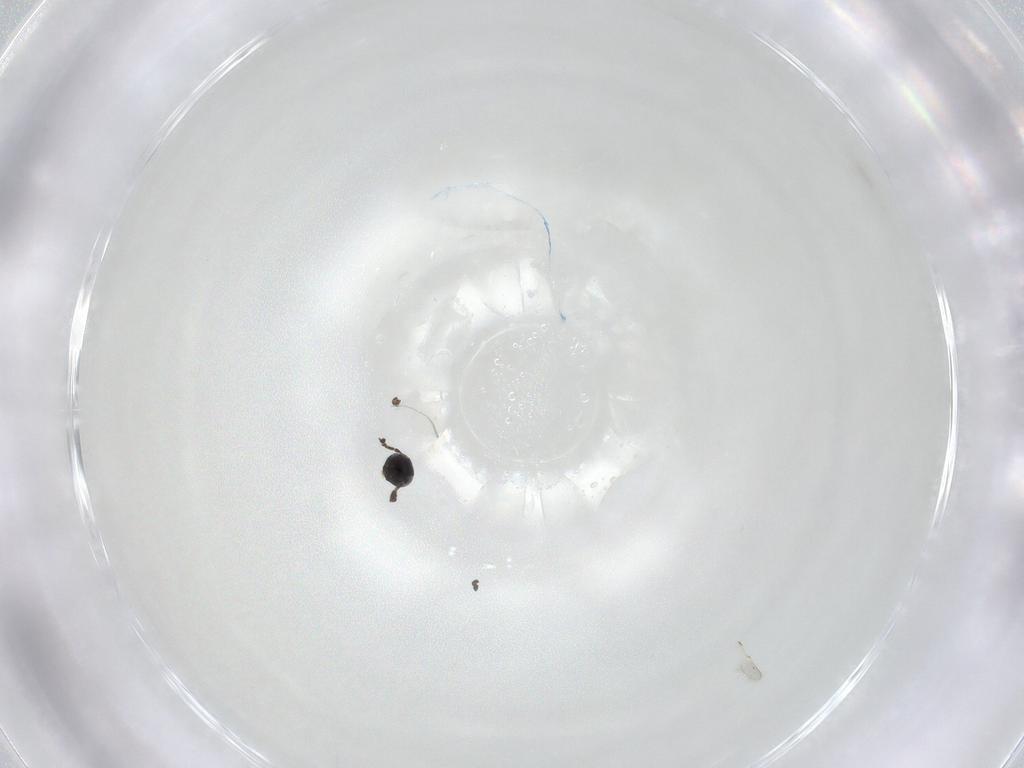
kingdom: Animalia
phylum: Arthropoda
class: Insecta
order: Hymenoptera
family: Scelionidae
